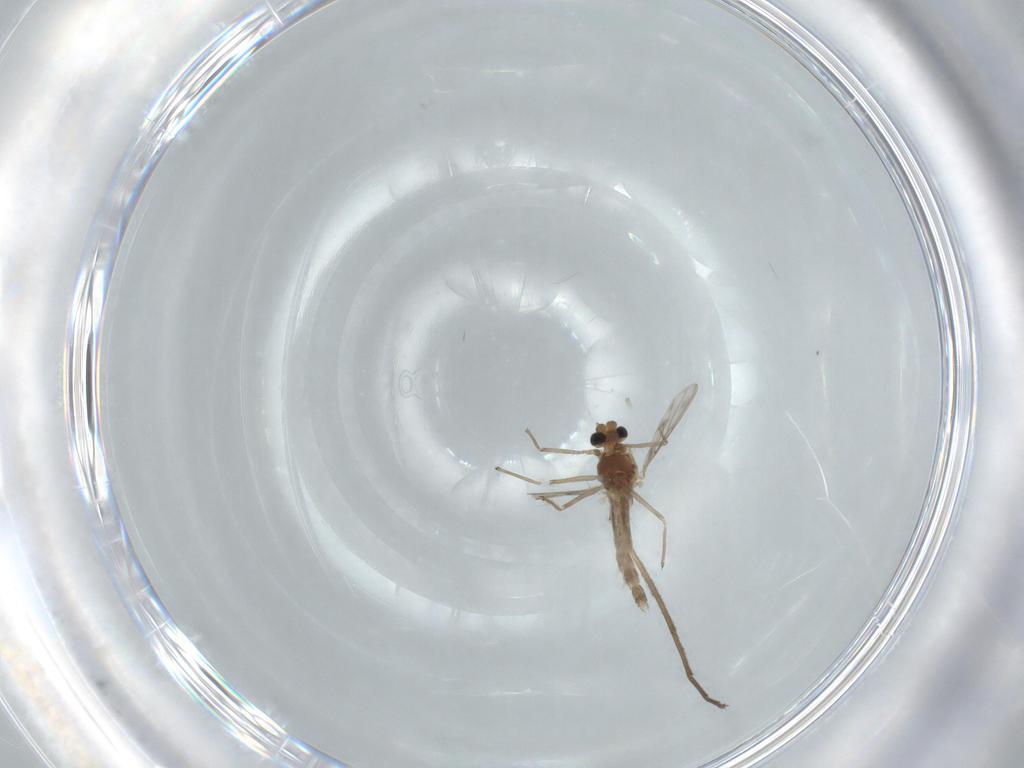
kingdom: Animalia
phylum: Arthropoda
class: Insecta
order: Diptera
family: Chironomidae
